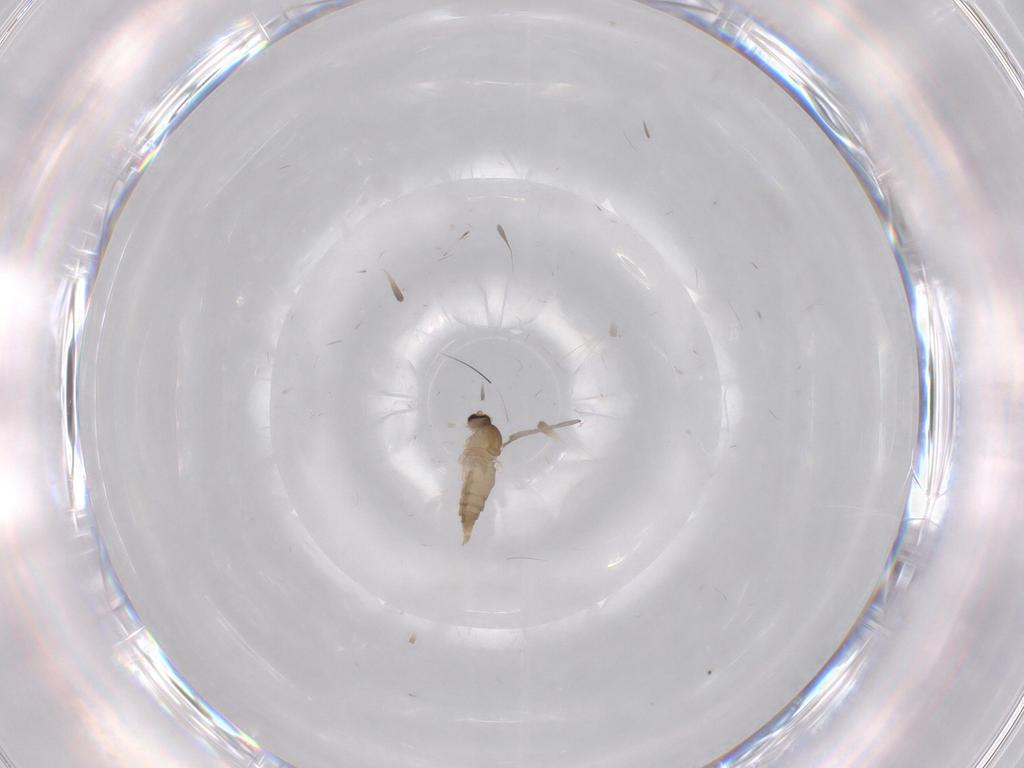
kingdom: Animalia
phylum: Arthropoda
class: Insecta
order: Diptera
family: Cecidomyiidae
